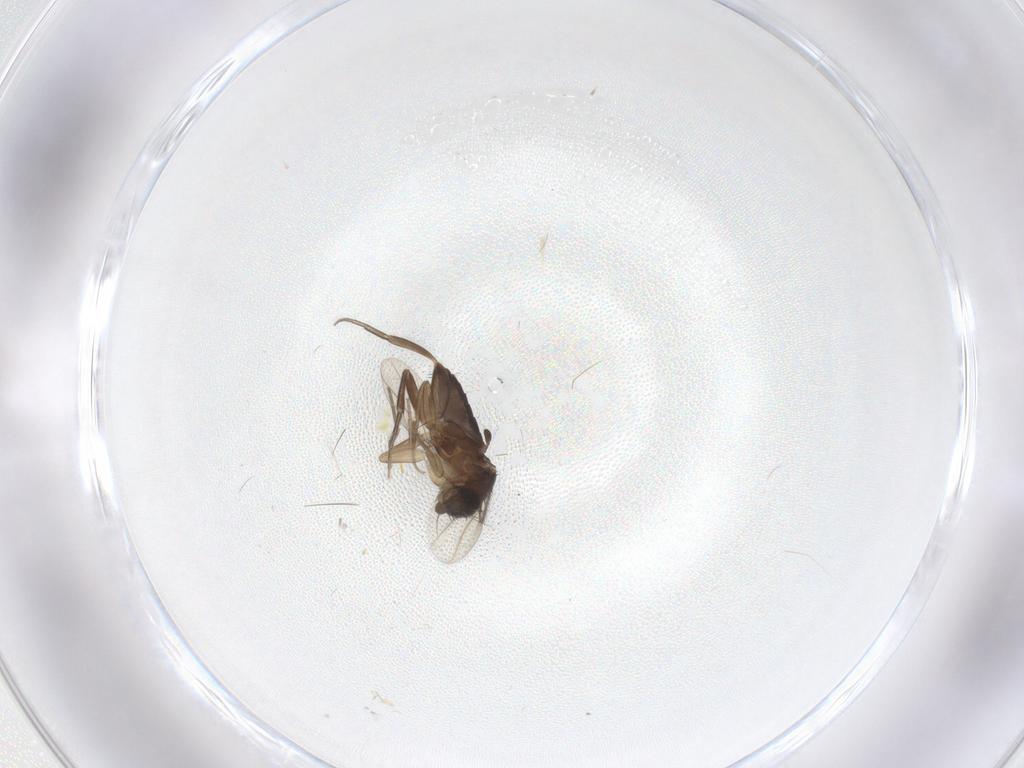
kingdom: Animalia
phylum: Arthropoda
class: Insecta
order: Diptera
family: Phoridae
